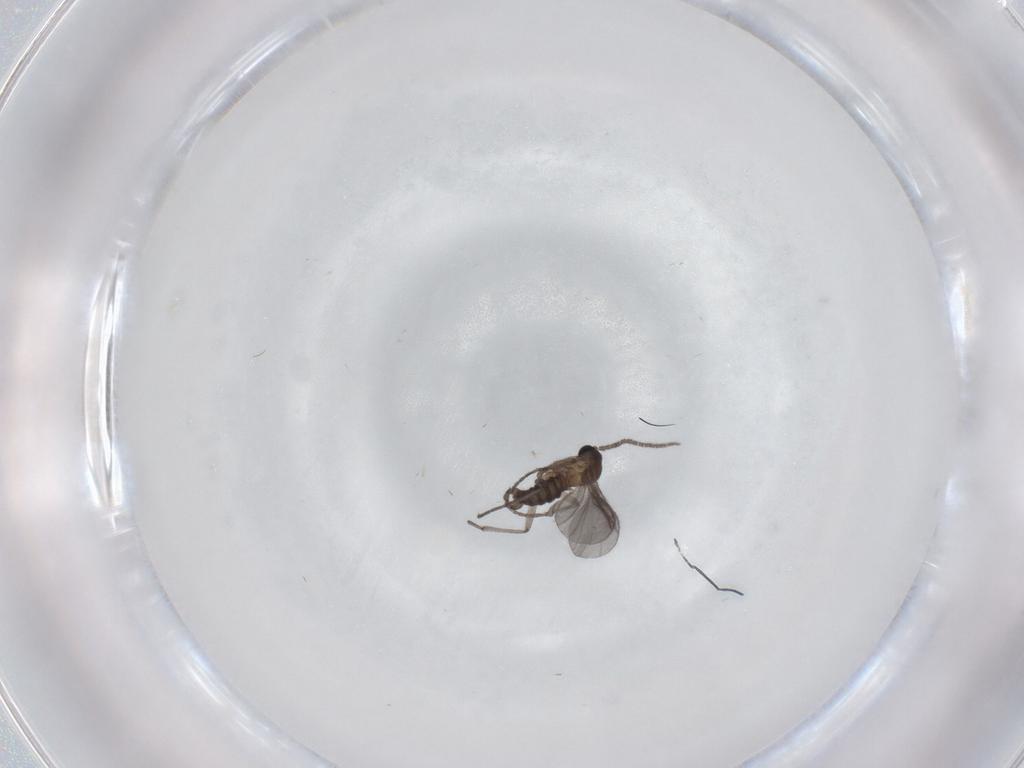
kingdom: Animalia
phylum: Arthropoda
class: Insecta
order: Diptera
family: Sciaridae
